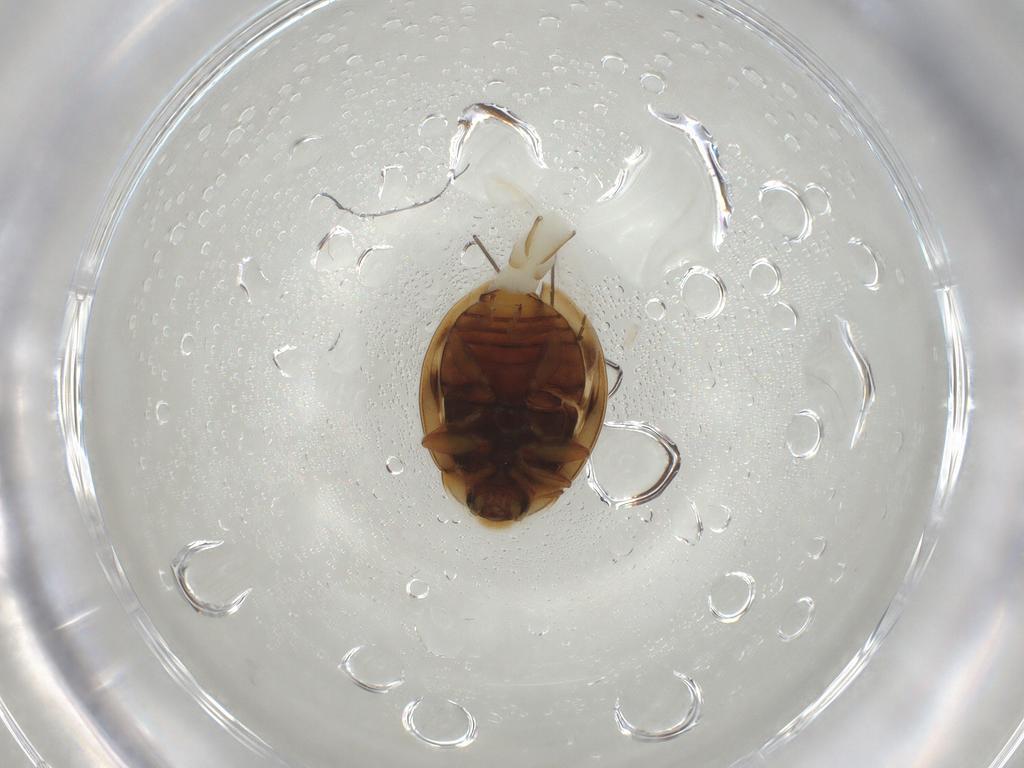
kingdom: Animalia
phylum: Arthropoda
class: Insecta
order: Coleoptera
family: Coccinellidae
